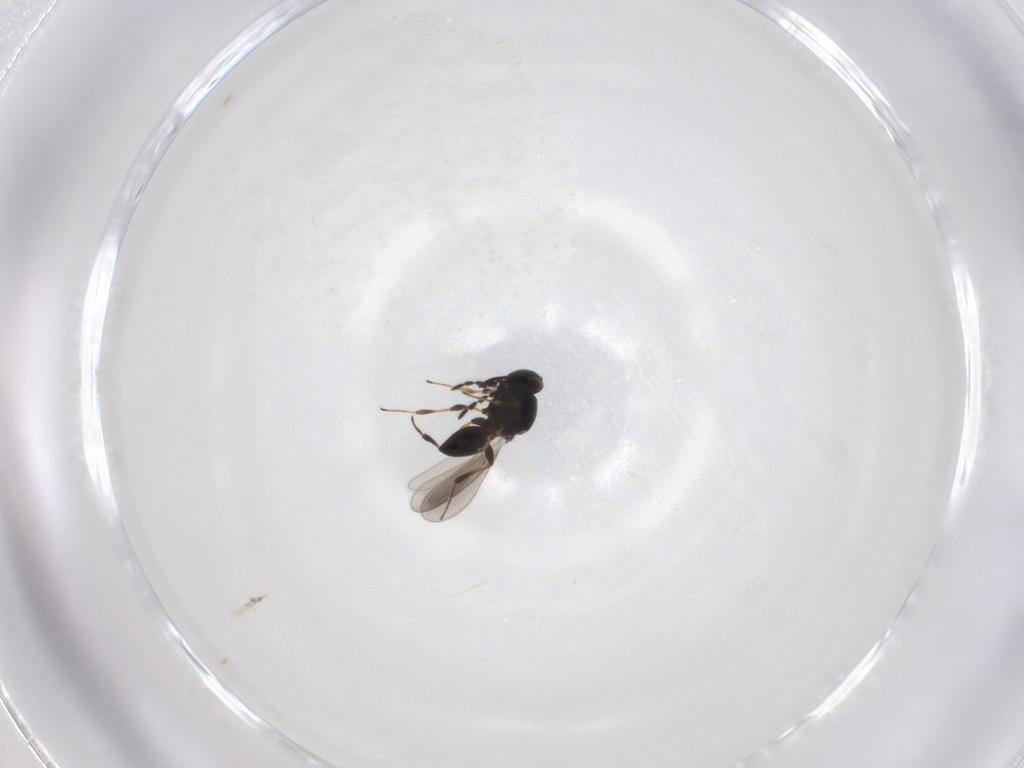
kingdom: Animalia
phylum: Arthropoda
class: Insecta
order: Hymenoptera
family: Platygastridae
